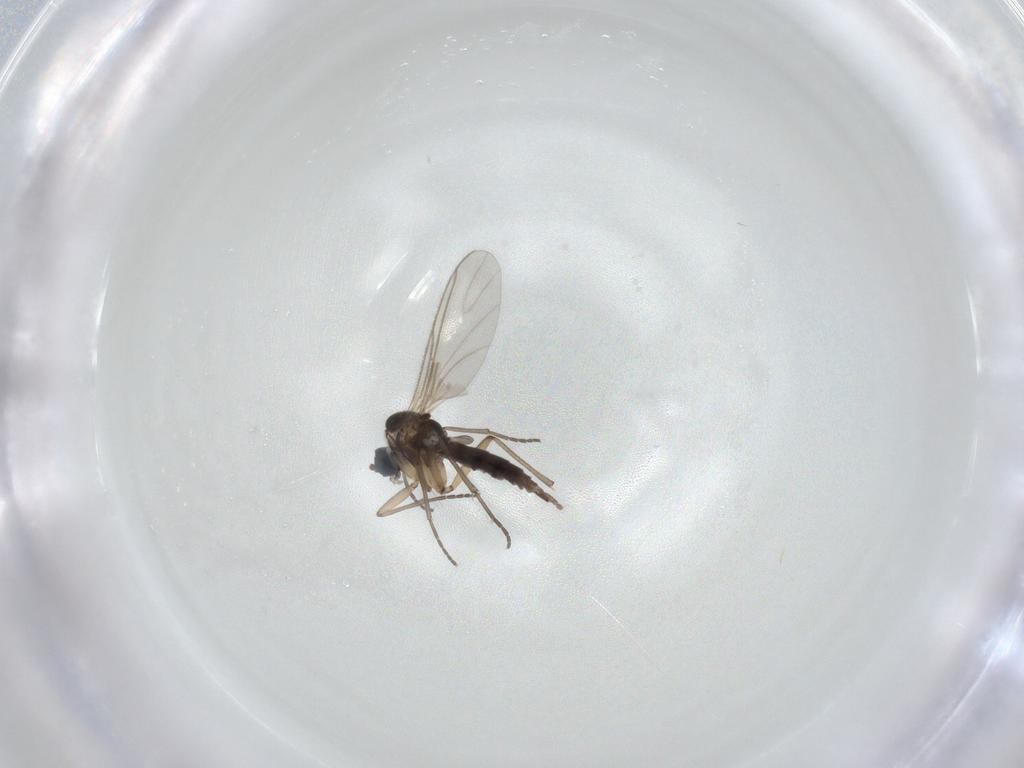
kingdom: Animalia
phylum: Arthropoda
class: Insecta
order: Diptera
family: Sciaridae
